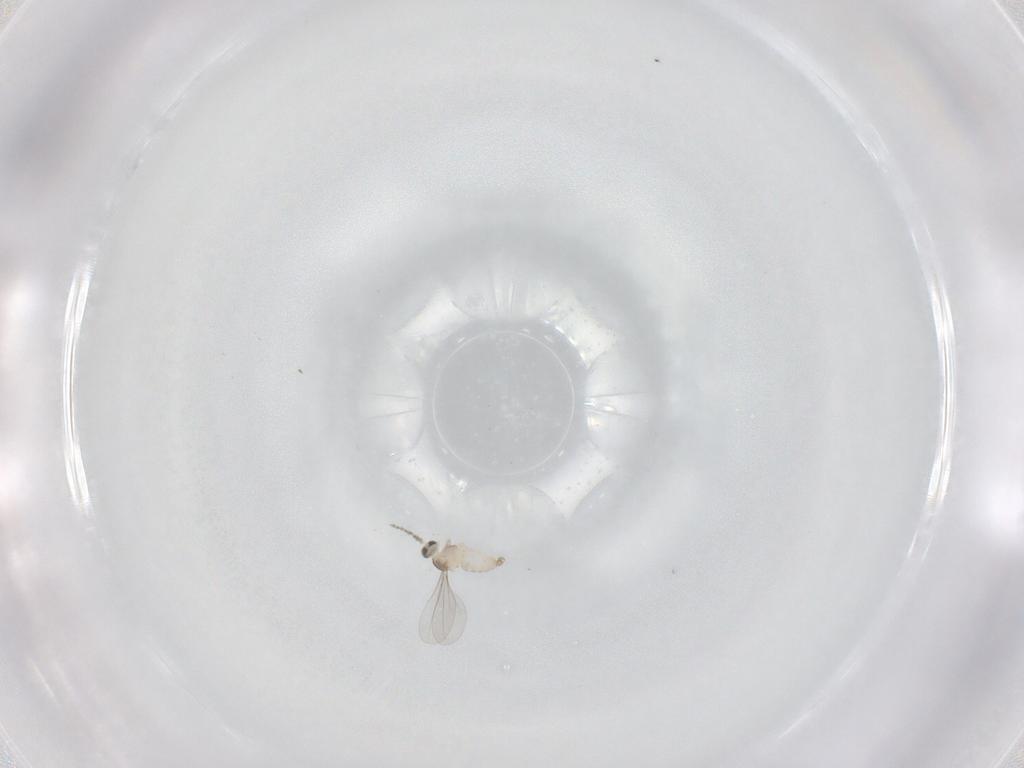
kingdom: Animalia
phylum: Arthropoda
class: Insecta
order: Diptera
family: Cecidomyiidae
